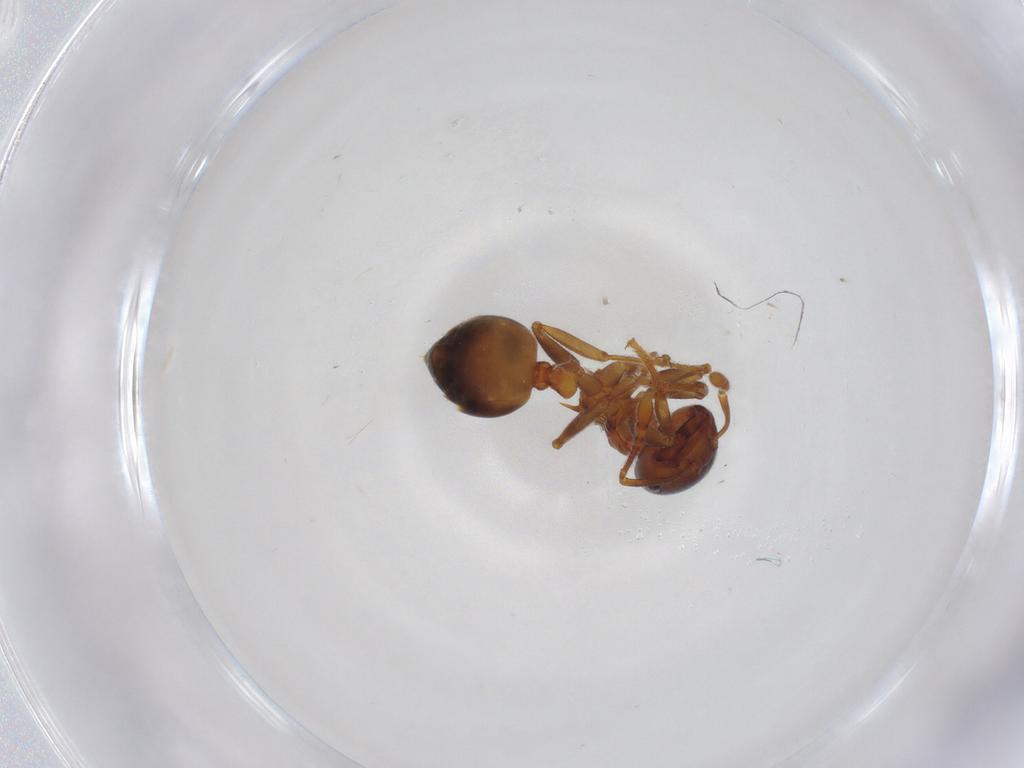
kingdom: Animalia
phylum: Arthropoda
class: Insecta
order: Hymenoptera
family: Formicidae
